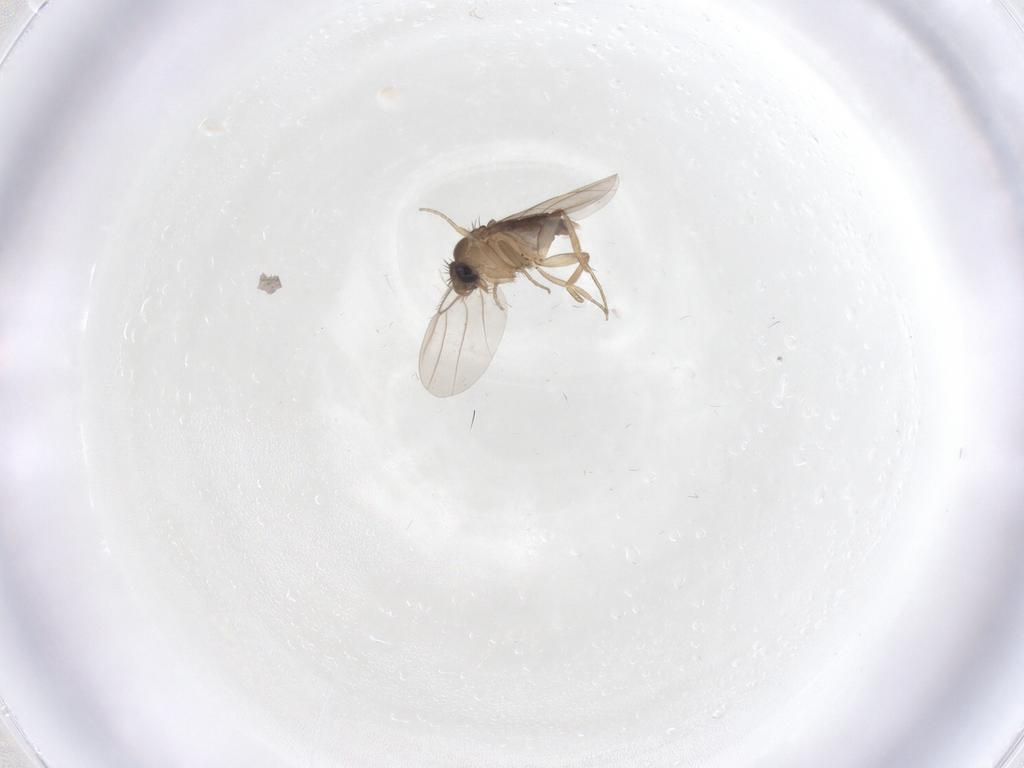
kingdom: Animalia
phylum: Arthropoda
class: Insecta
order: Diptera
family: Phoridae
